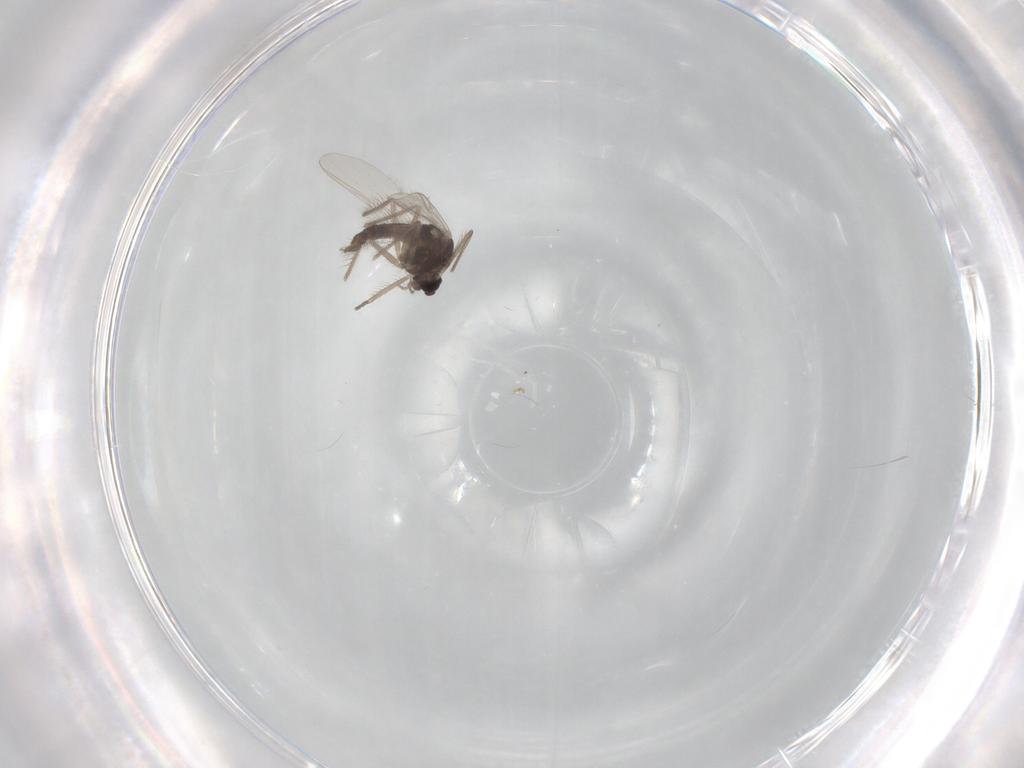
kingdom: Animalia
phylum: Arthropoda
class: Insecta
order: Diptera
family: Chironomidae
